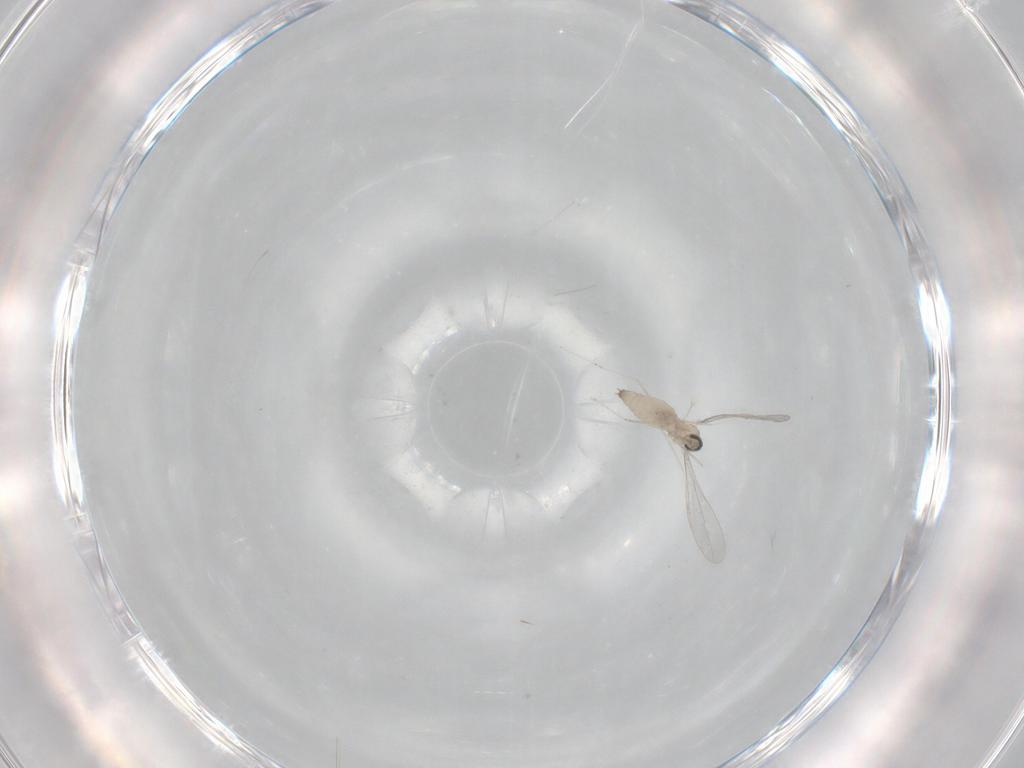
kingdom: Animalia
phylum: Arthropoda
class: Insecta
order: Diptera
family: Cecidomyiidae
